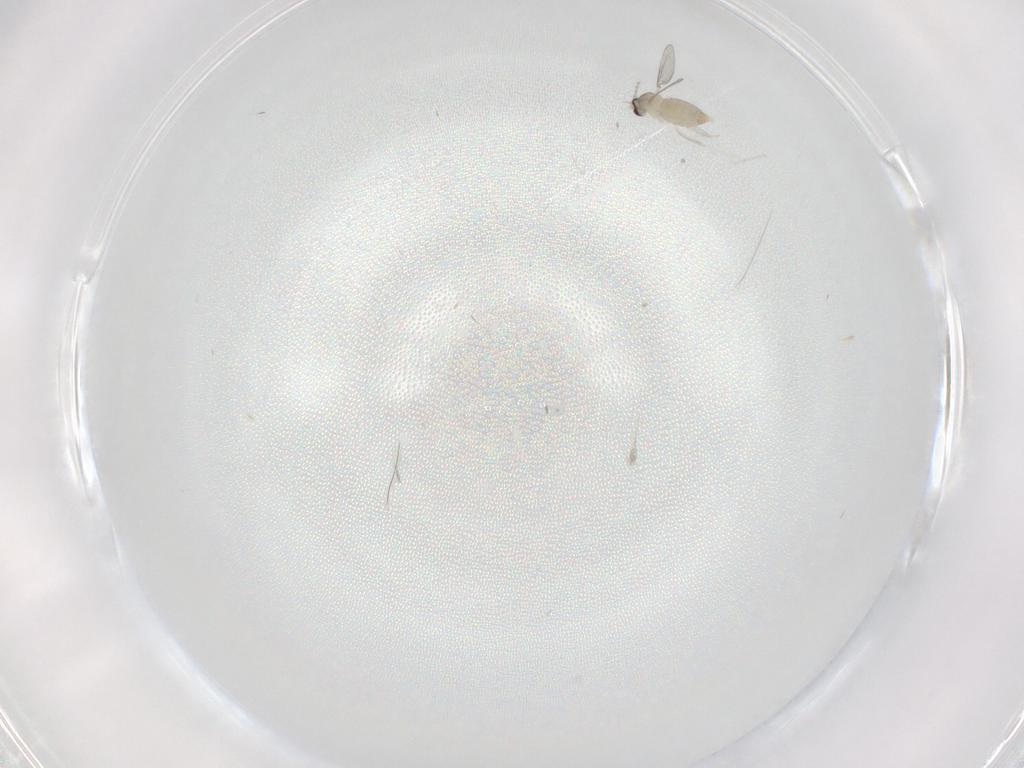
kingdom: Animalia
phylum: Arthropoda
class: Insecta
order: Diptera
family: Cecidomyiidae
